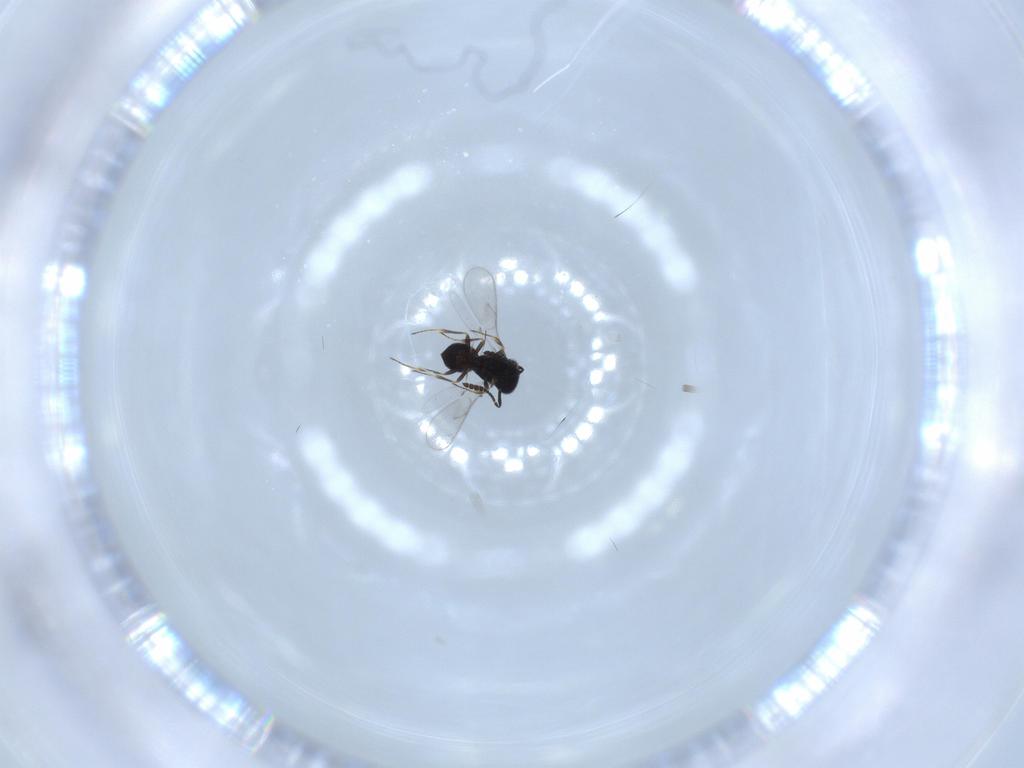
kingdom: Animalia
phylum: Arthropoda
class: Insecta
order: Hymenoptera
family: Scelionidae
